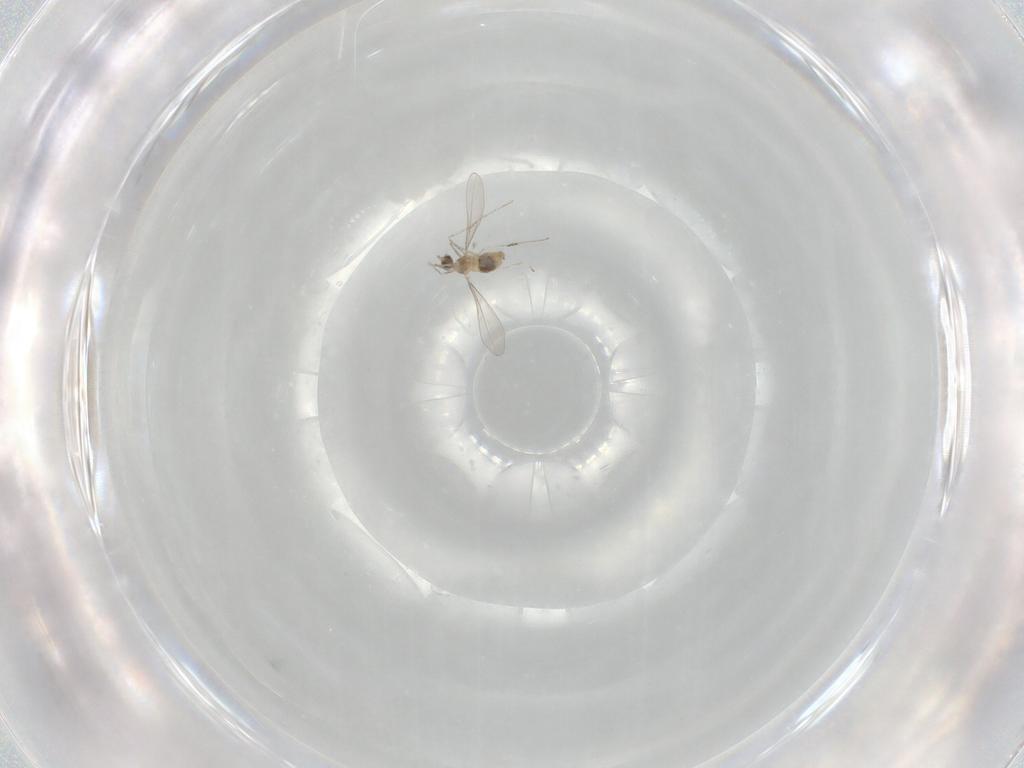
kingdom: Animalia
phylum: Arthropoda
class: Insecta
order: Diptera
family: Cecidomyiidae
